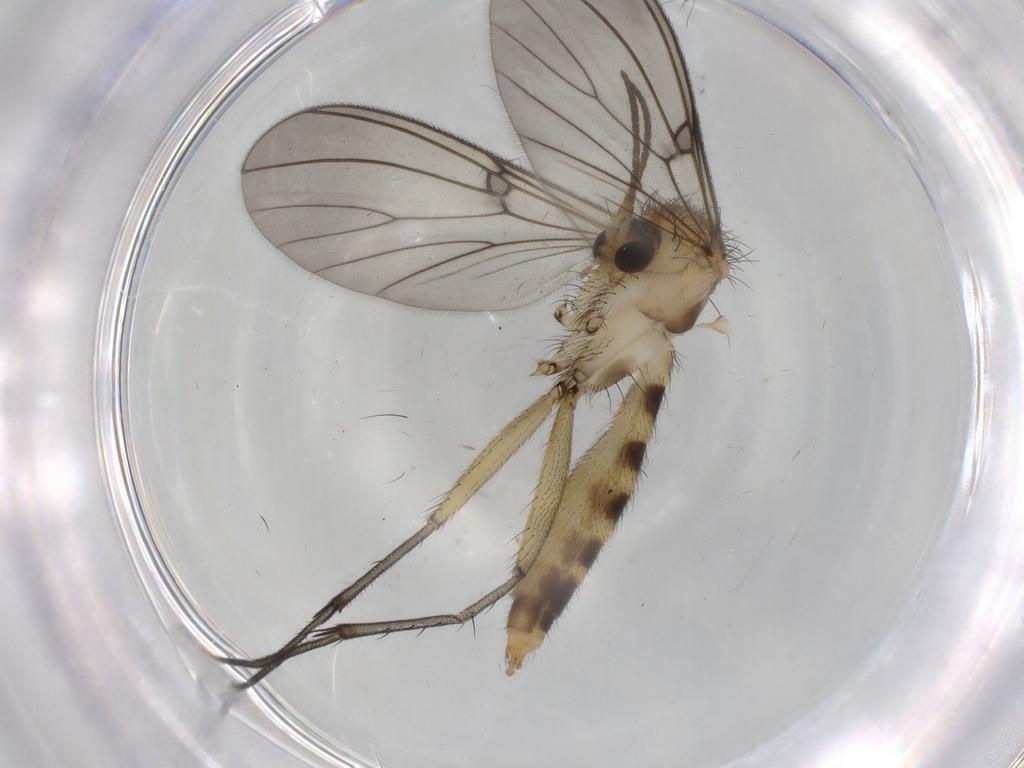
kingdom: Animalia
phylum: Arthropoda
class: Insecta
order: Diptera
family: Mycetophilidae
